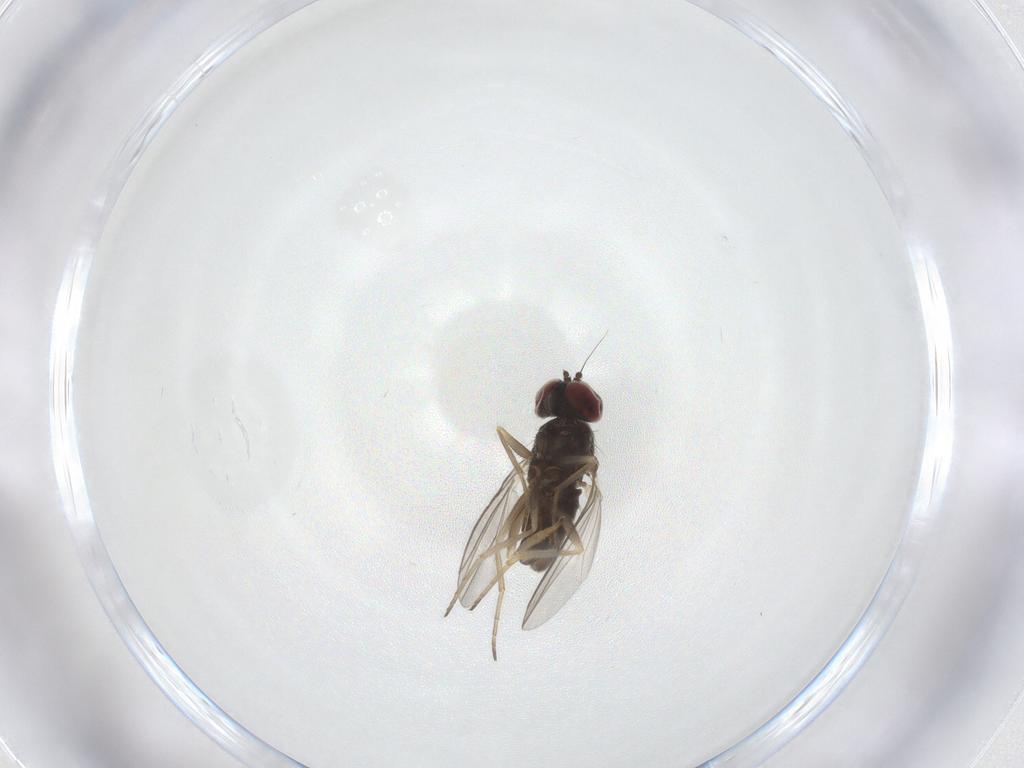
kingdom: Animalia
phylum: Arthropoda
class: Insecta
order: Diptera
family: Dolichopodidae
